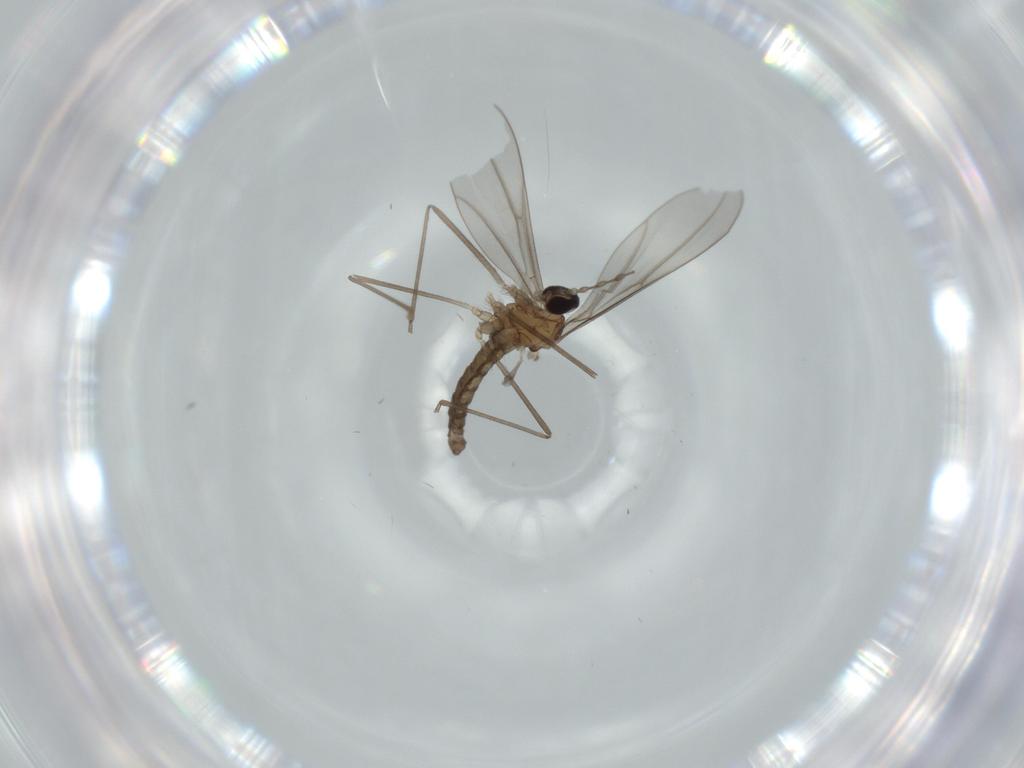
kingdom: Animalia
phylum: Arthropoda
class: Insecta
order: Diptera
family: Cecidomyiidae
